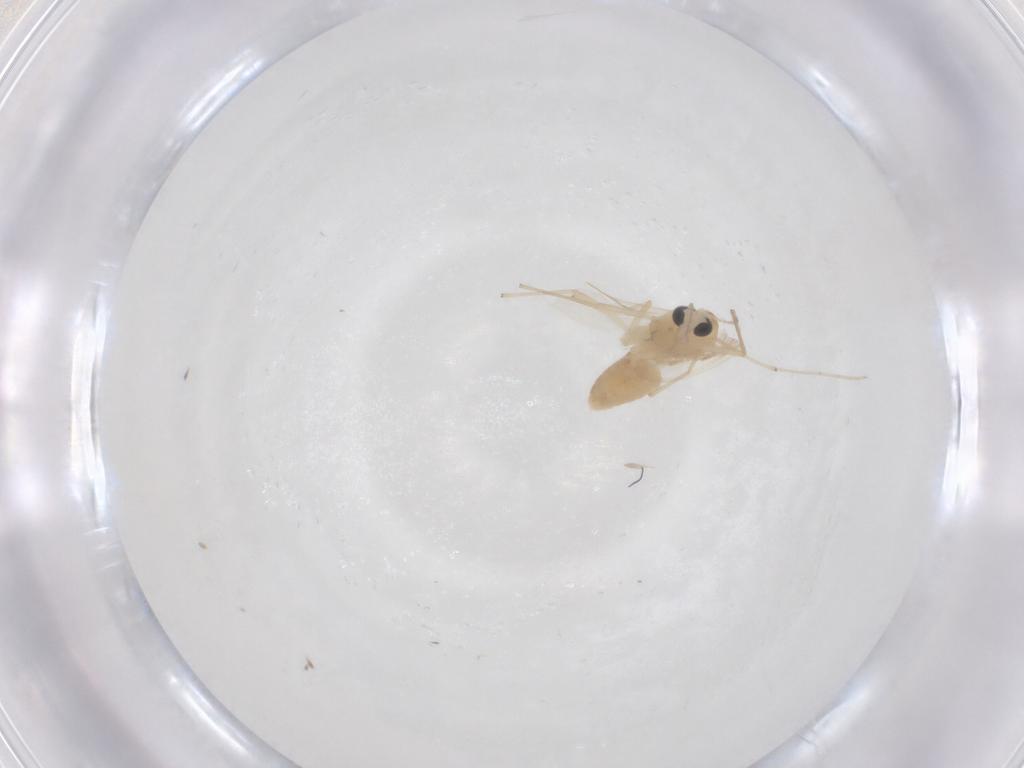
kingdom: Animalia
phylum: Arthropoda
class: Insecta
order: Diptera
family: Chironomidae
